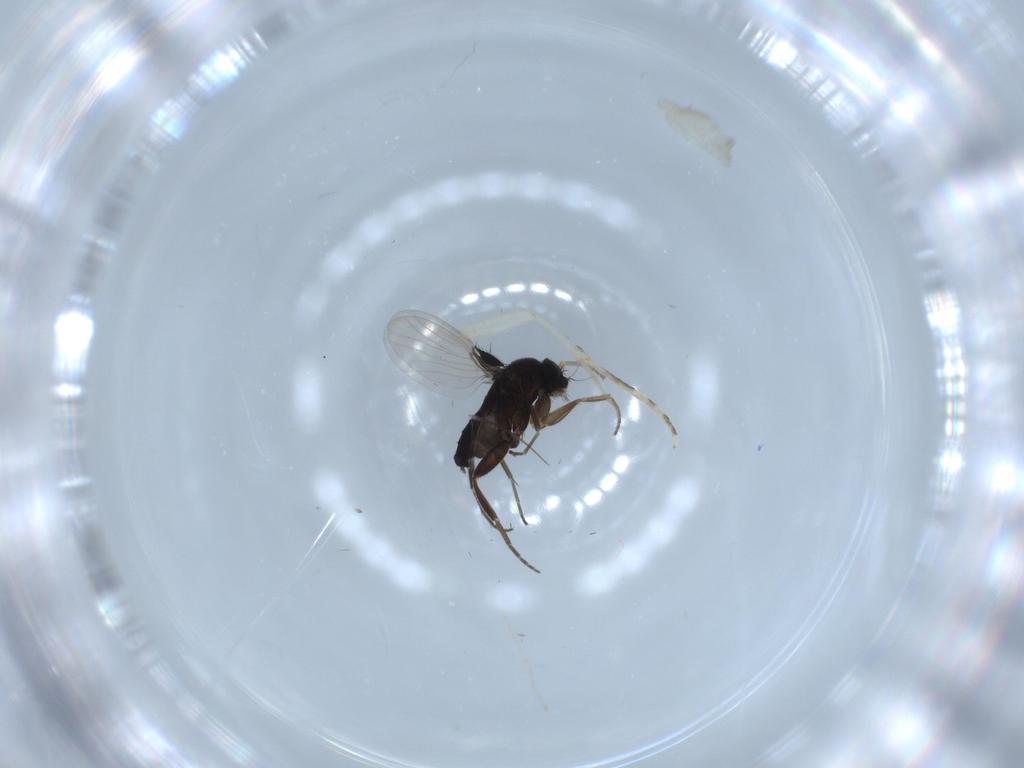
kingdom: Animalia
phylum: Arthropoda
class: Insecta
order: Diptera
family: Phoridae
